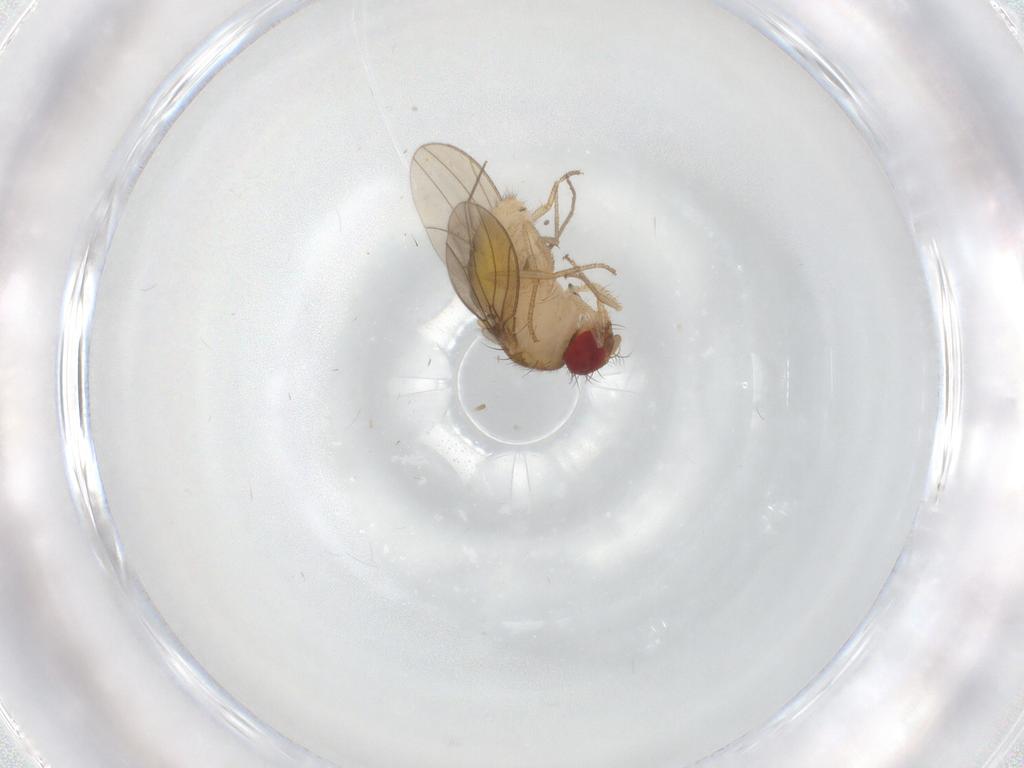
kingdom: Animalia
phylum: Arthropoda
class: Insecta
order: Diptera
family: Drosophilidae
